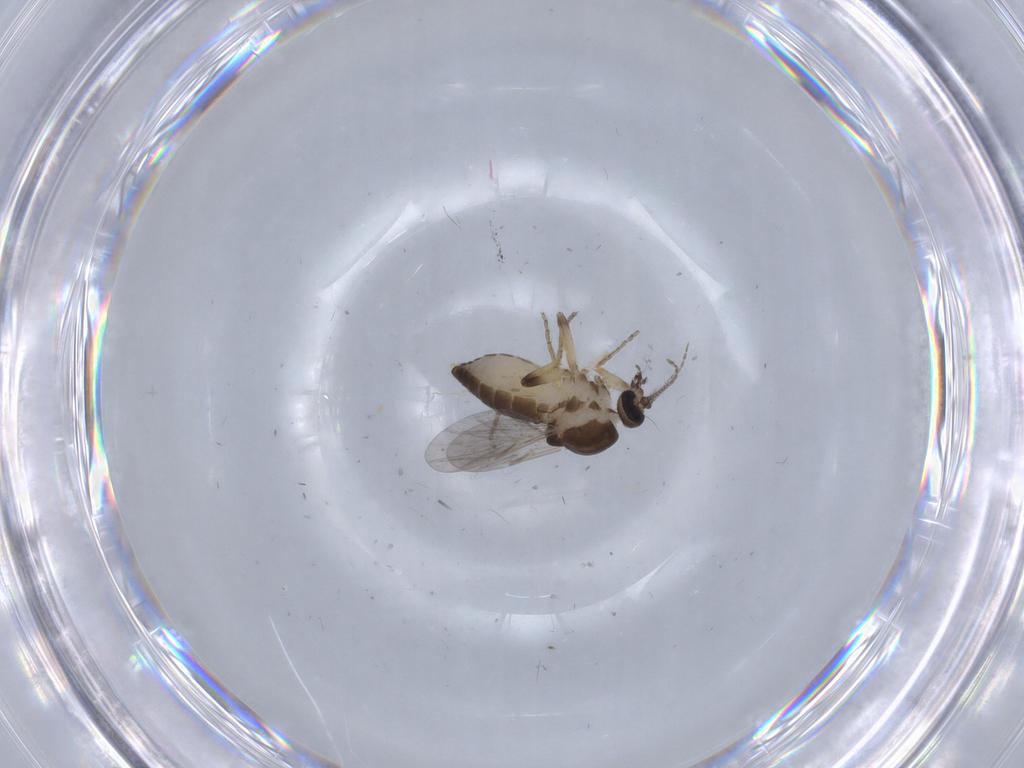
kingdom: Animalia
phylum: Arthropoda
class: Insecta
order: Diptera
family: Ceratopogonidae
